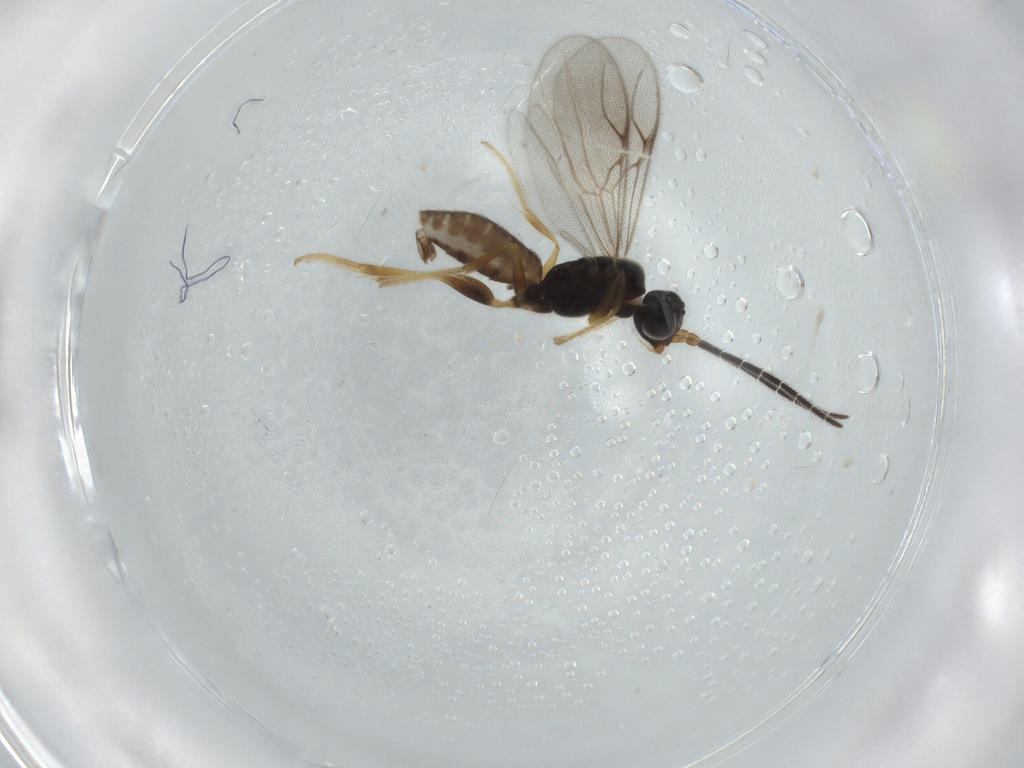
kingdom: Animalia
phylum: Arthropoda
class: Insecta
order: Hymenoptera
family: Bethylidae
